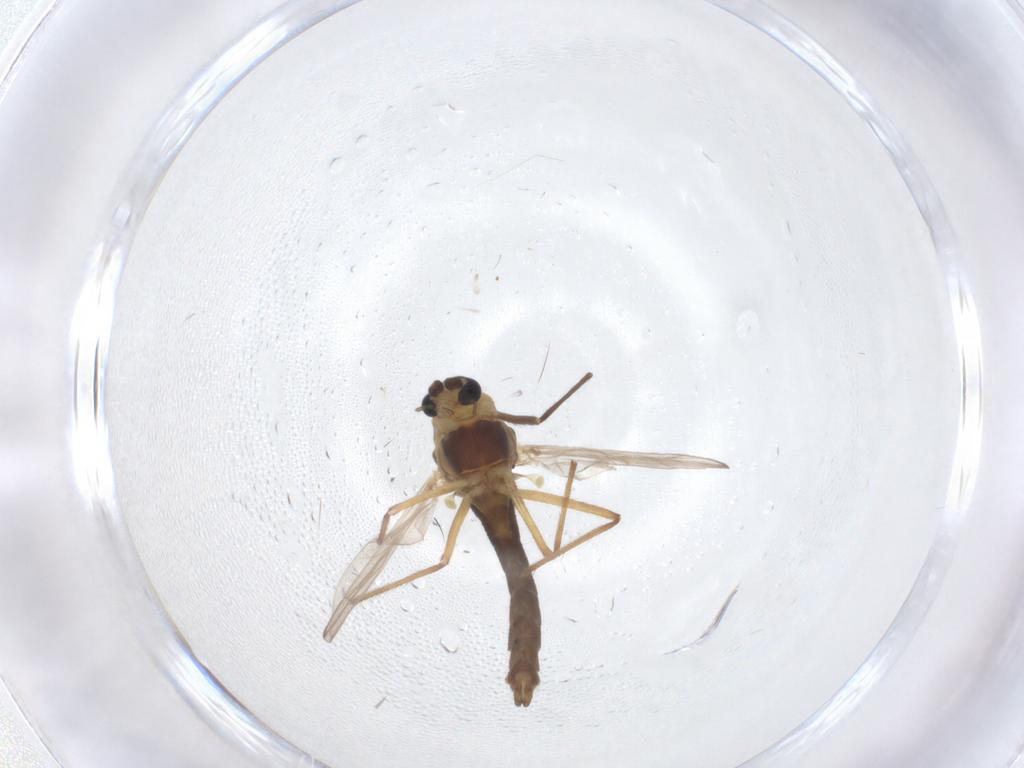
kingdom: Animalia
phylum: Arthropoda
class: Insecta
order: Diptera
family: Chironomidae
